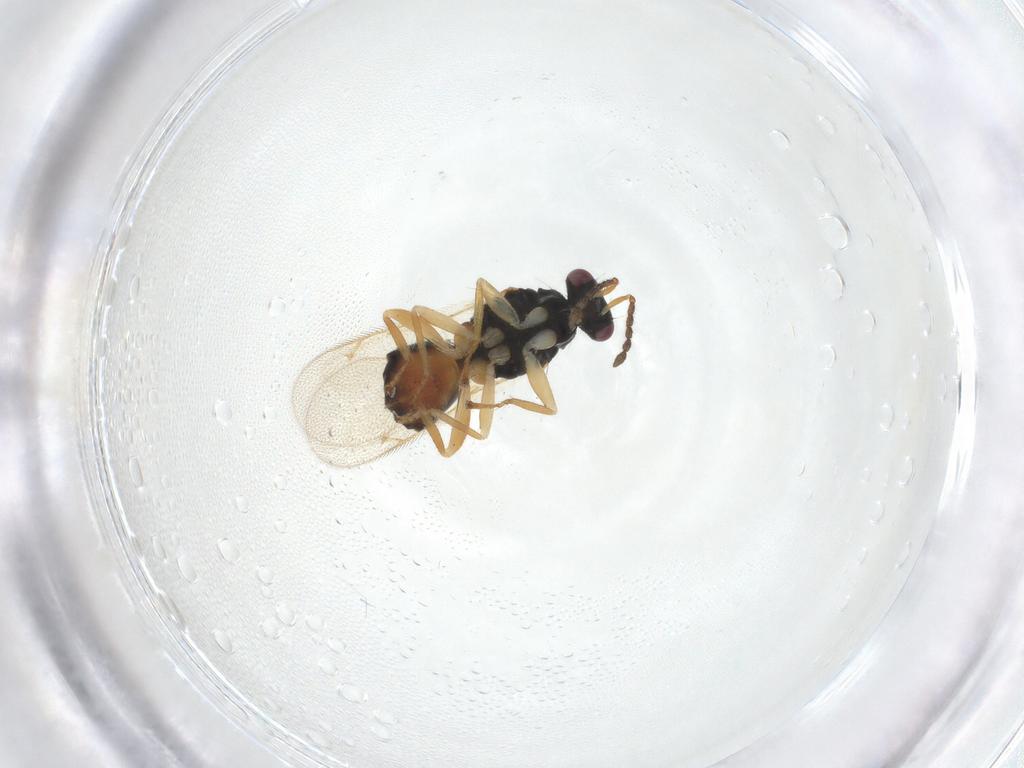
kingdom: Animalia
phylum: Arthropoda
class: Insecta
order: Hymenoptera
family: Eulophidae
